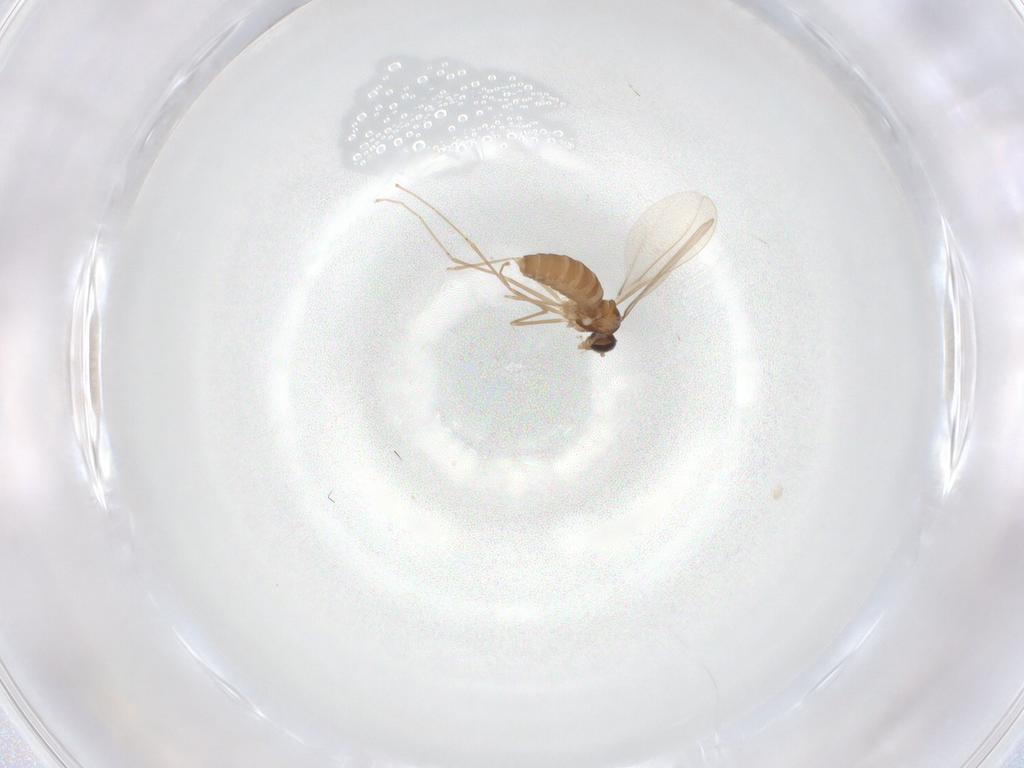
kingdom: Animalia
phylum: Arthropoda
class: Insecta
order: Diptera
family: Cecidomyiidae
